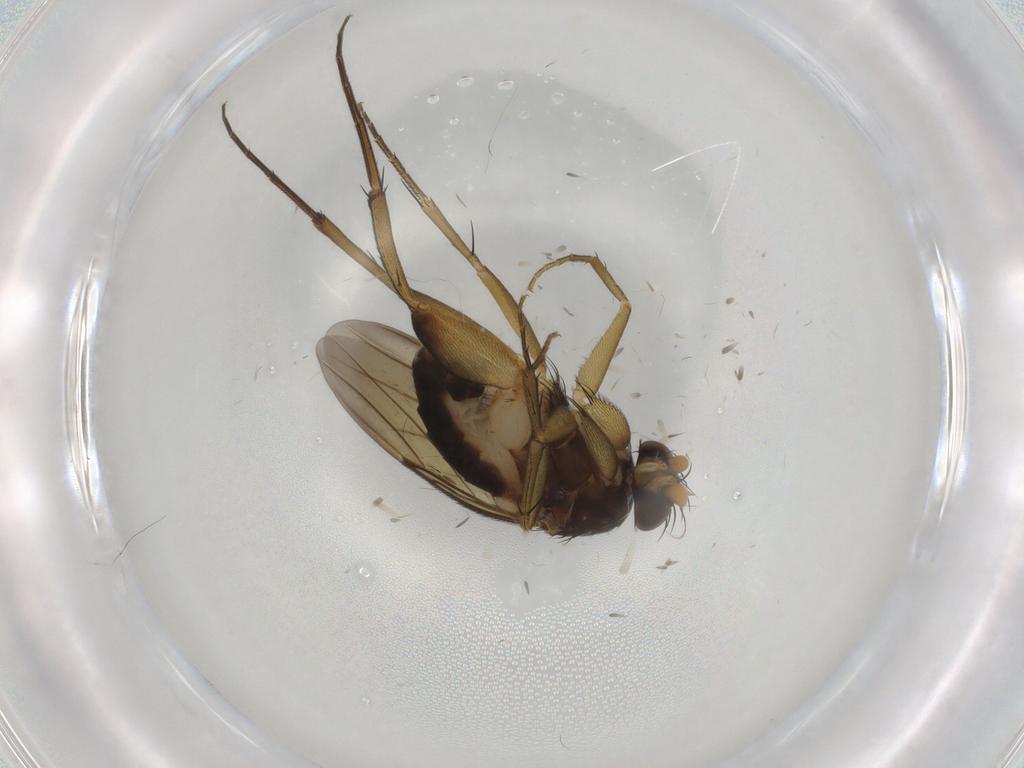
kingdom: Animalia
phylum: Arthropoda
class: Insecta
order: Diptera
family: Phoridae
